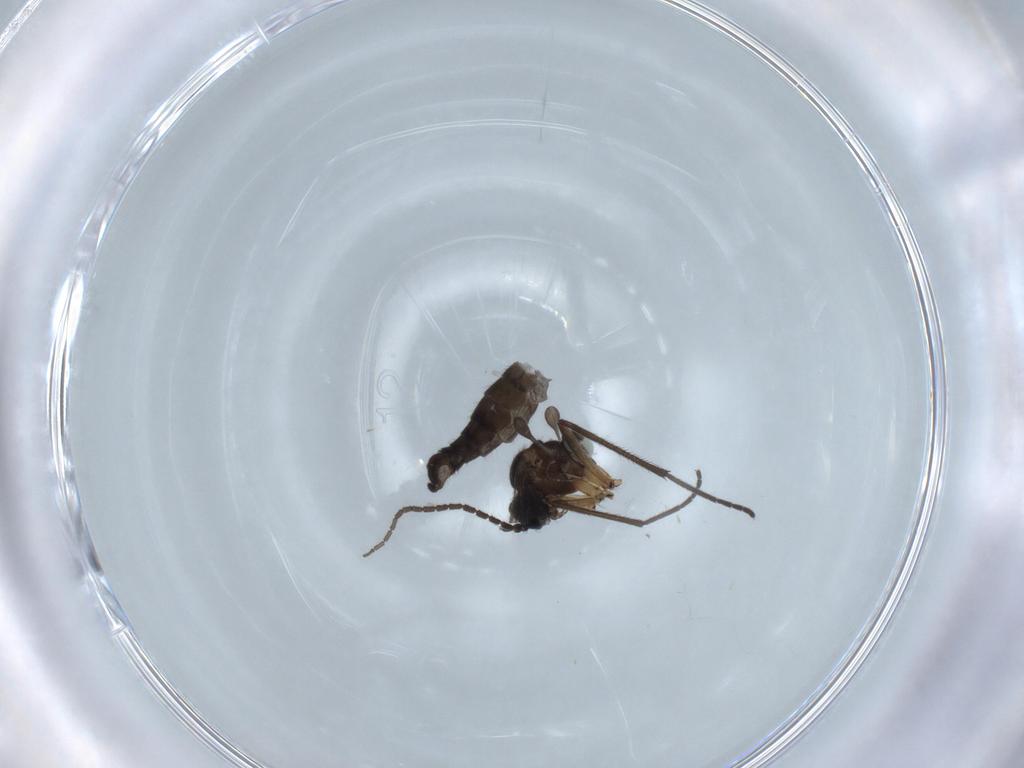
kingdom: Animalia
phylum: Arthropoda
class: Insecta
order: Diptera
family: Sciaridae
